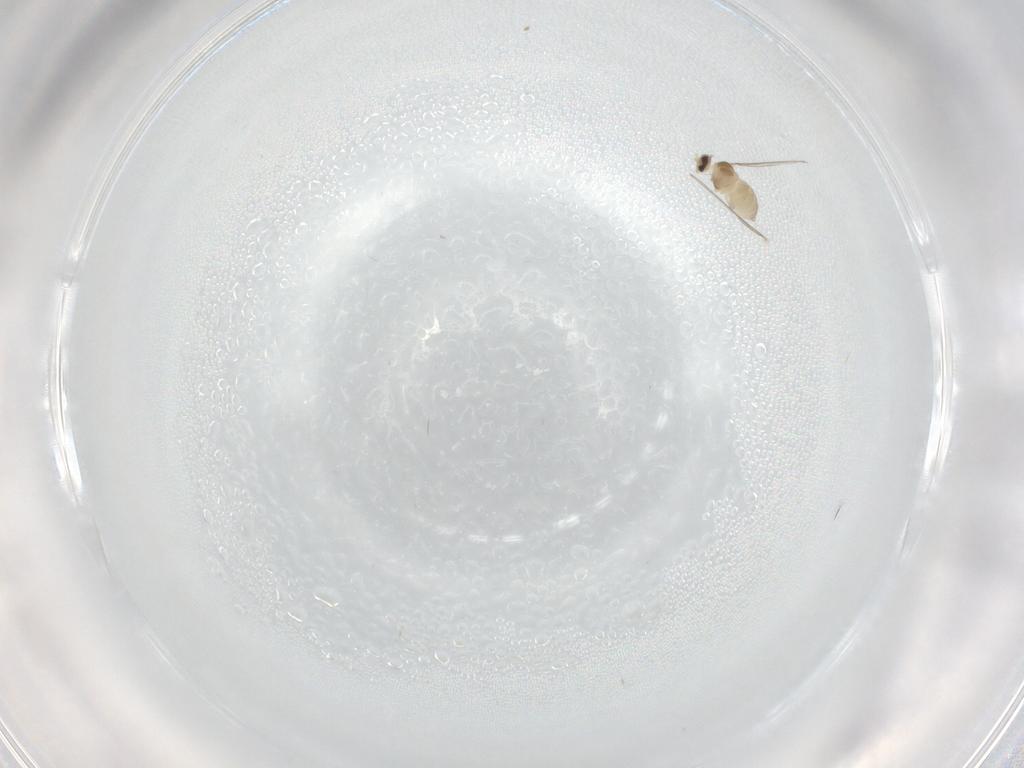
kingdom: Animalia
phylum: Arthropoda
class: Insecta
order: Diptera
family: Cecidomyiidae
